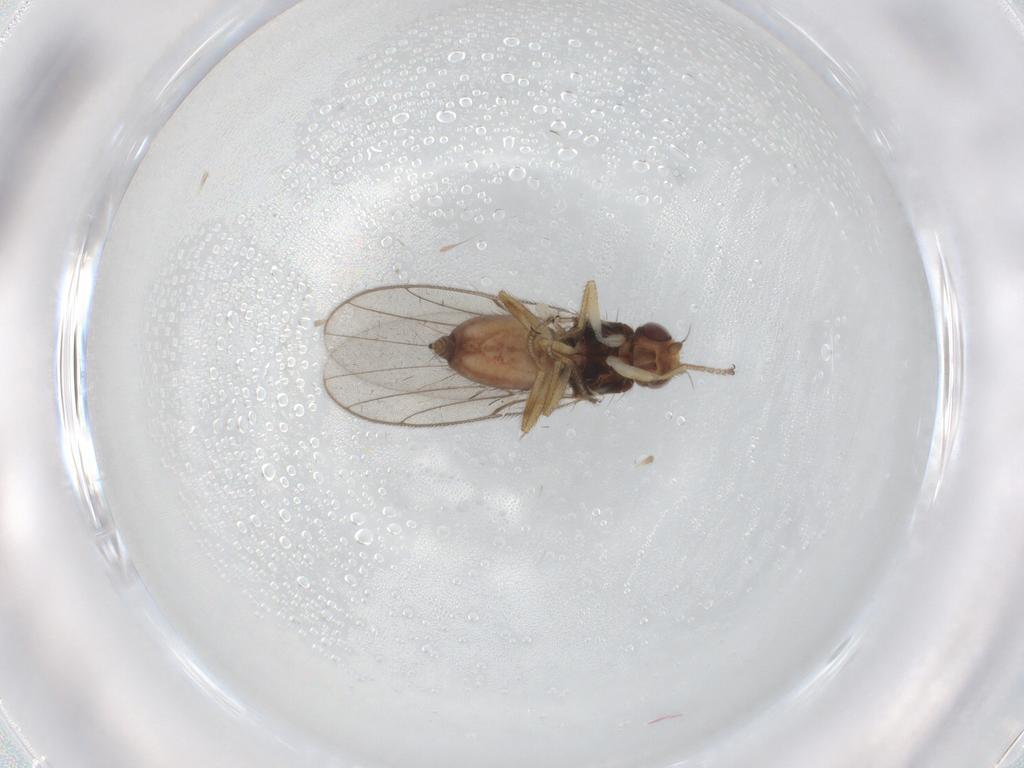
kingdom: Animalia
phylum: Arthropoda
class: Insecta
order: Diptera
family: Chloropidae
